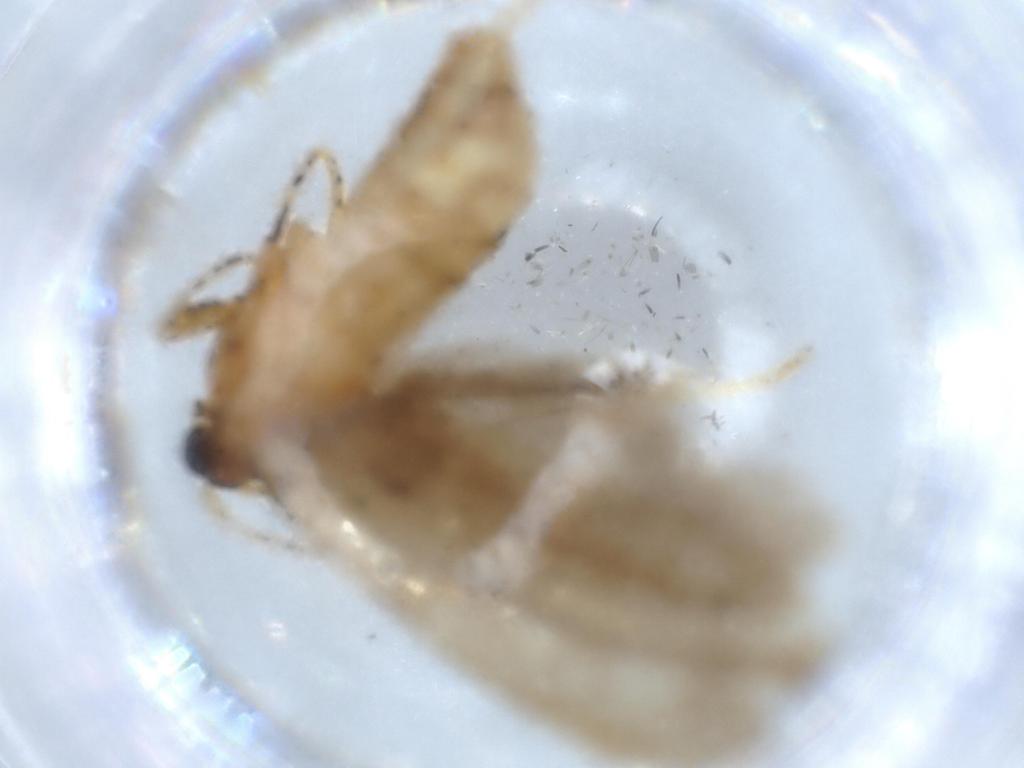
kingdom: Animalia
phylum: Arthropoda
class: Insecta
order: Lepidoptera
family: Tineidae
